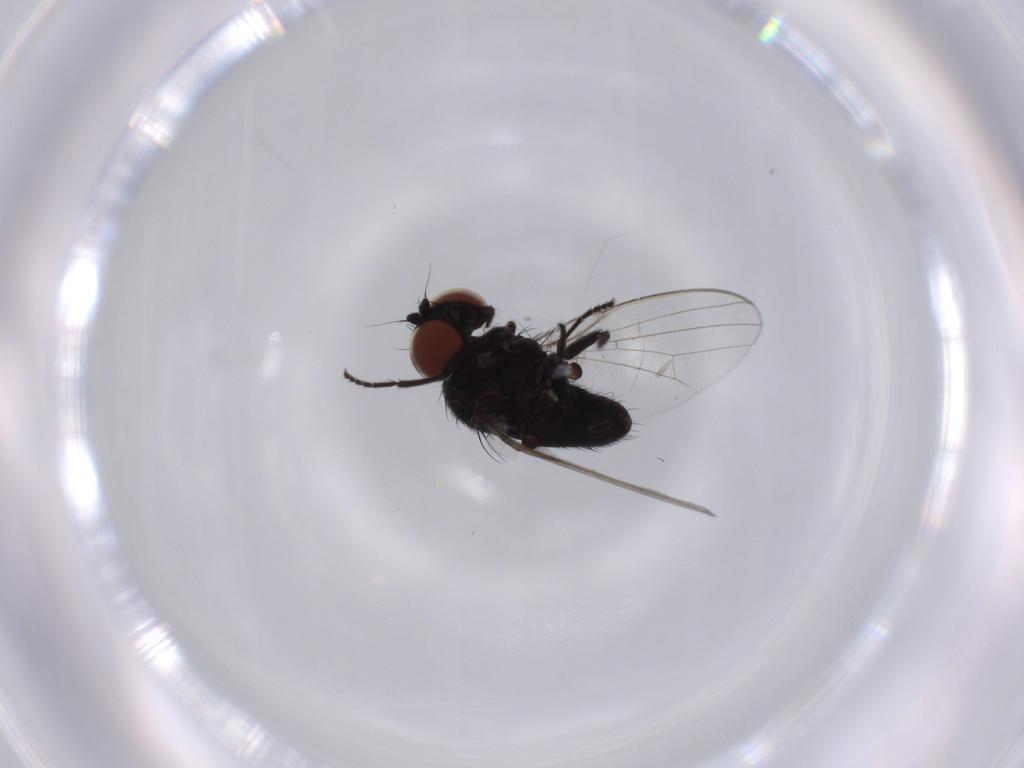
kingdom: Animalia
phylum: Arthropoda
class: Insecta
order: Diptera
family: Milichiidae
